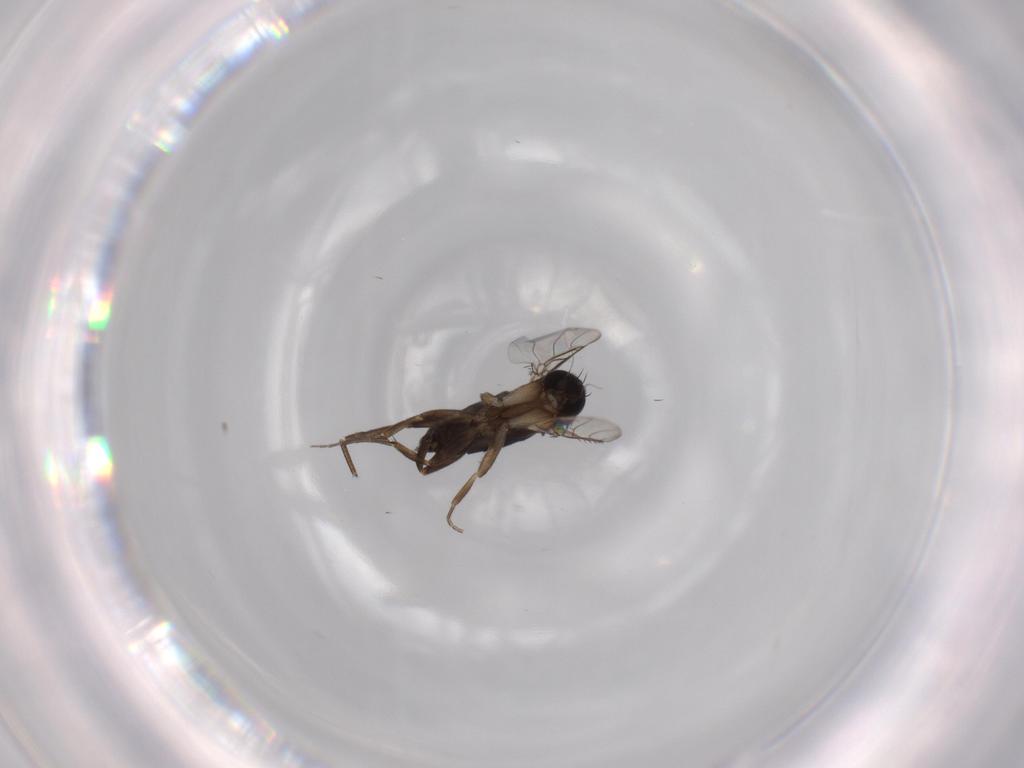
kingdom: Animalia
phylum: Arthropoda
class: Insecta
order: Diptera
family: Phoridae
